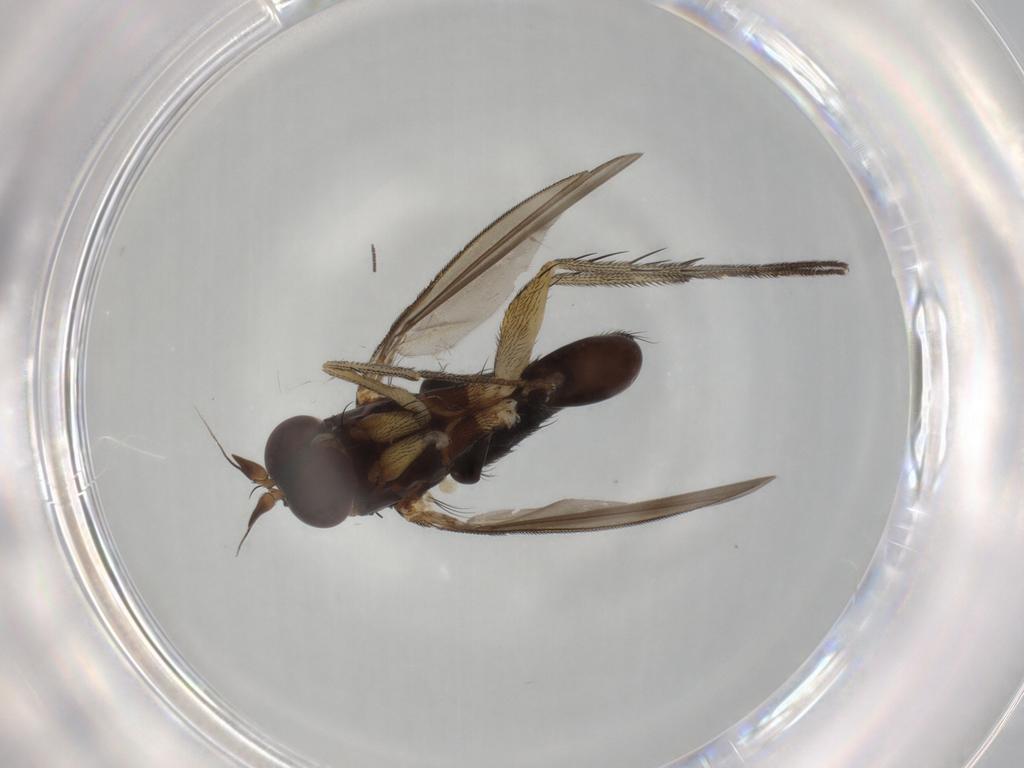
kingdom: Animalia
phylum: Arthropoda
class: Insecta
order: Diptera
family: Dolichopodidae
